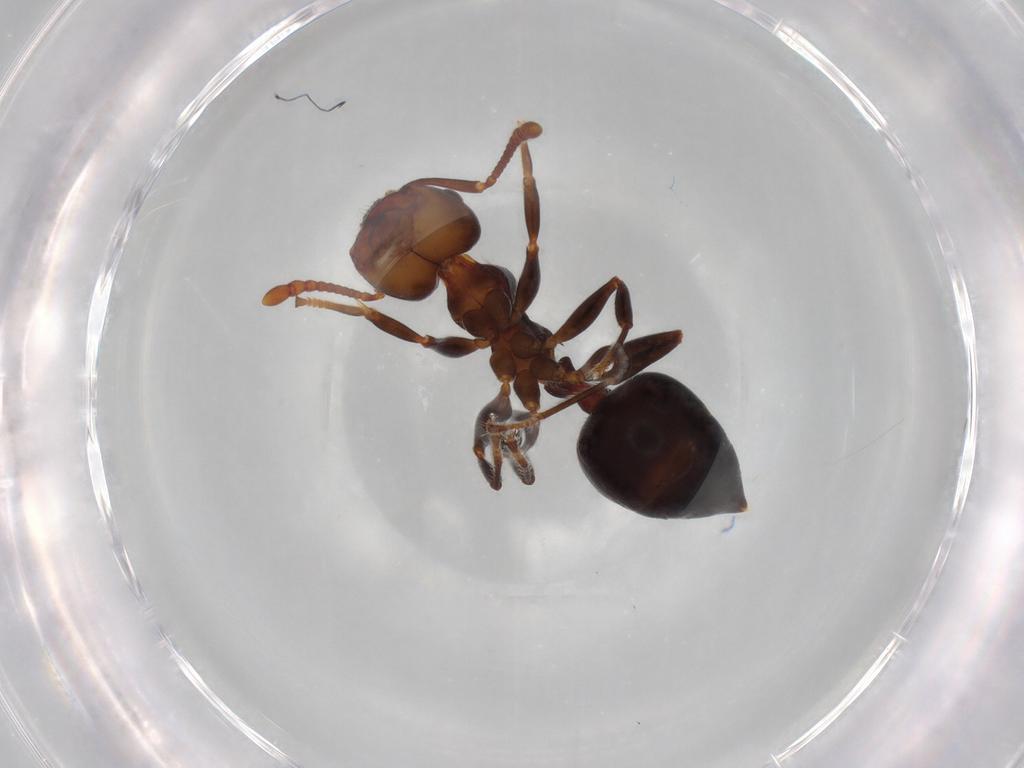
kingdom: Animalia
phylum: Arthropoda
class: Insecta
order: Hymenoptera
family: Formicidae
